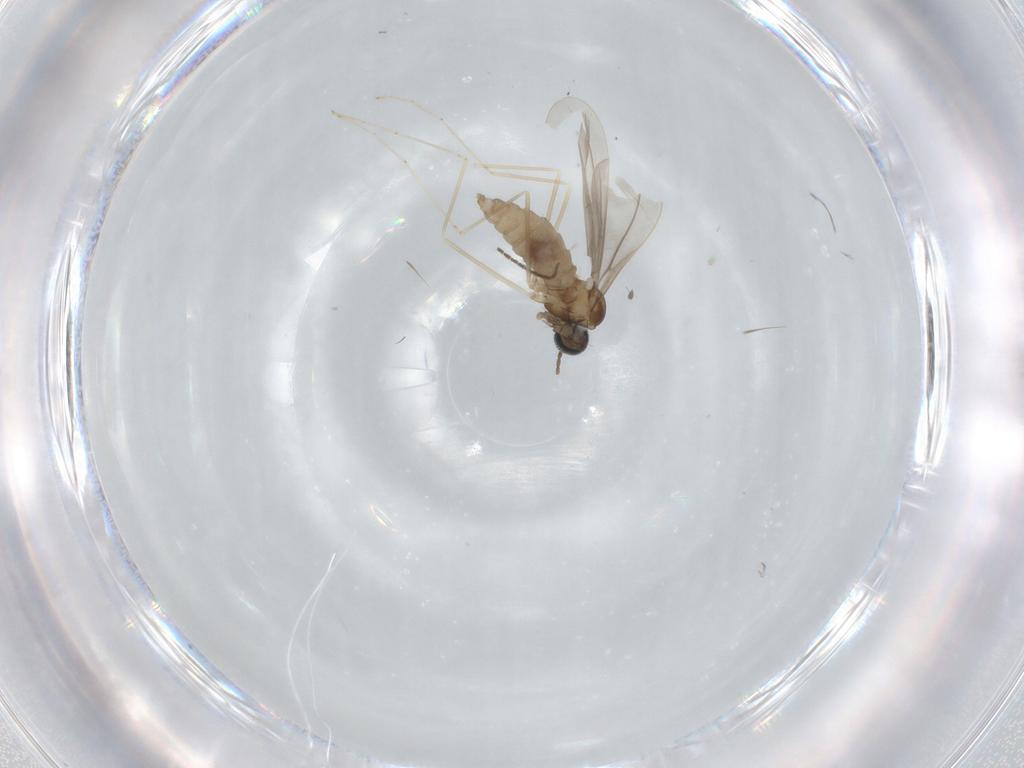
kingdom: Animalia
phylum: Arthropoda
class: Insecta
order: Diptera
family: Sciaridae
